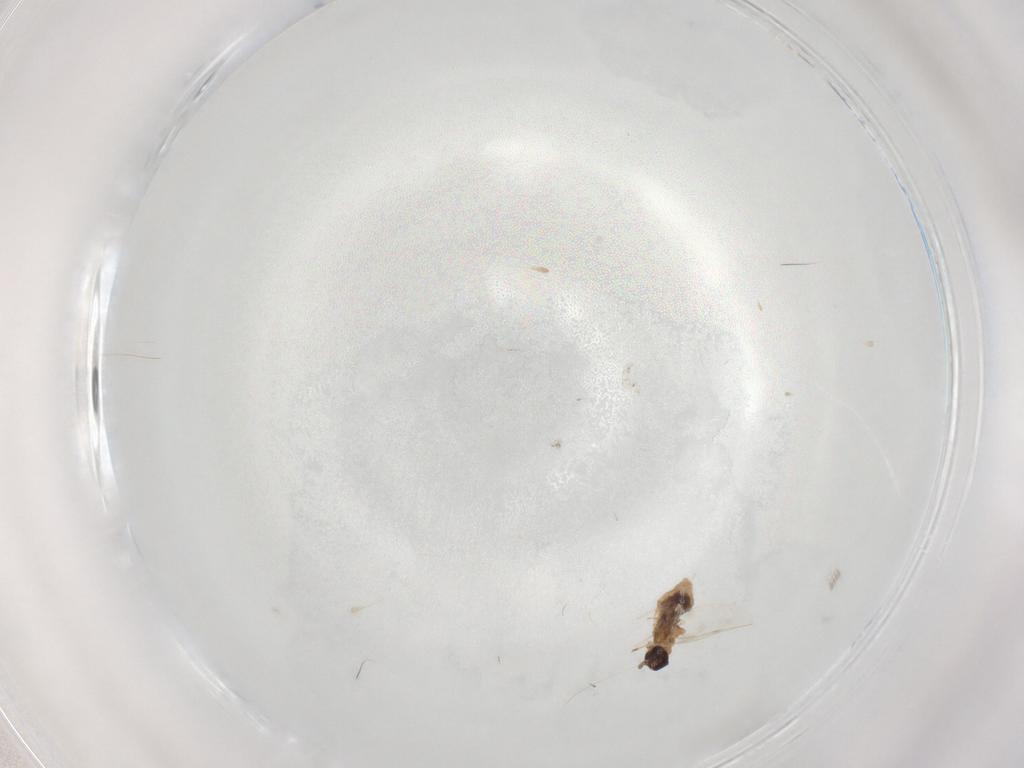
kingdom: Animalia
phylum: Arthropoda
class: Insecta
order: Diptera
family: Cecidomyiidae
